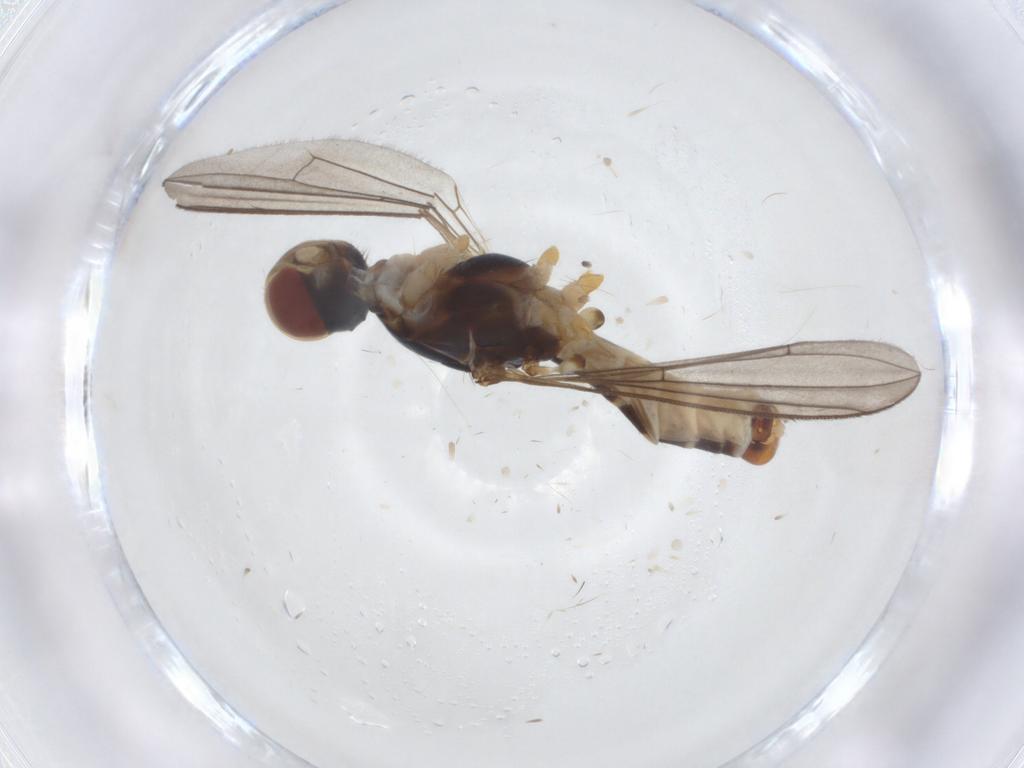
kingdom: Animalia
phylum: Arthropoda
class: Insecta
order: Diptera
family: Micropezidae
